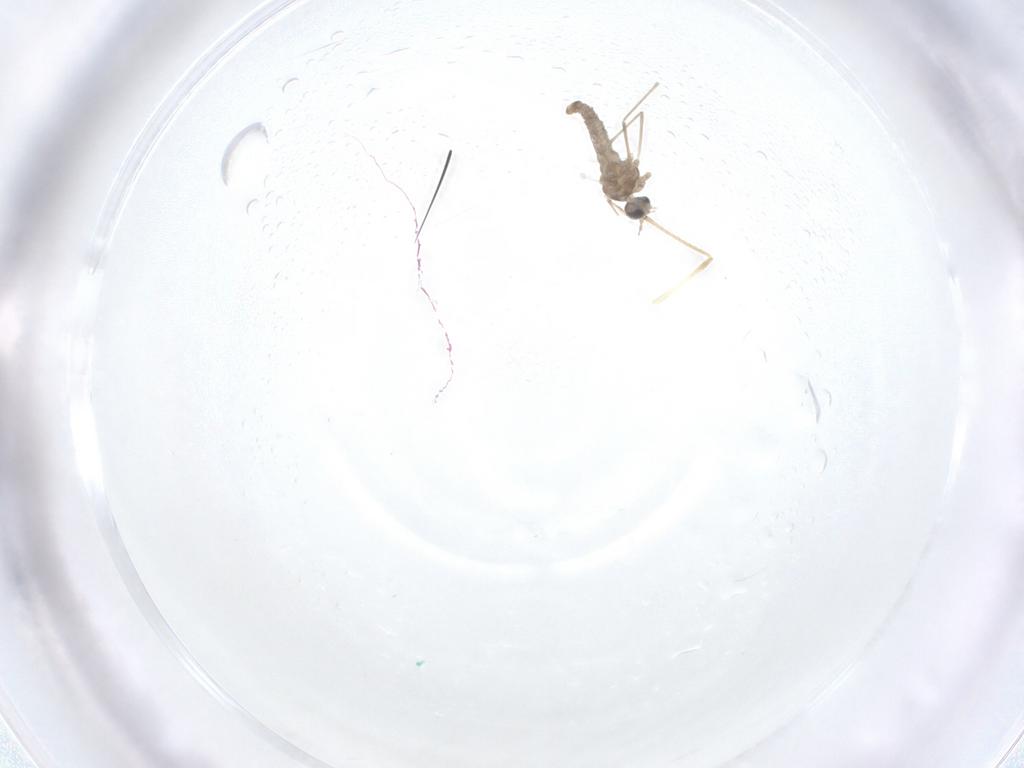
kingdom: Animalia
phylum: Arthropoda
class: Insecta
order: Diptera
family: Chironomidae
